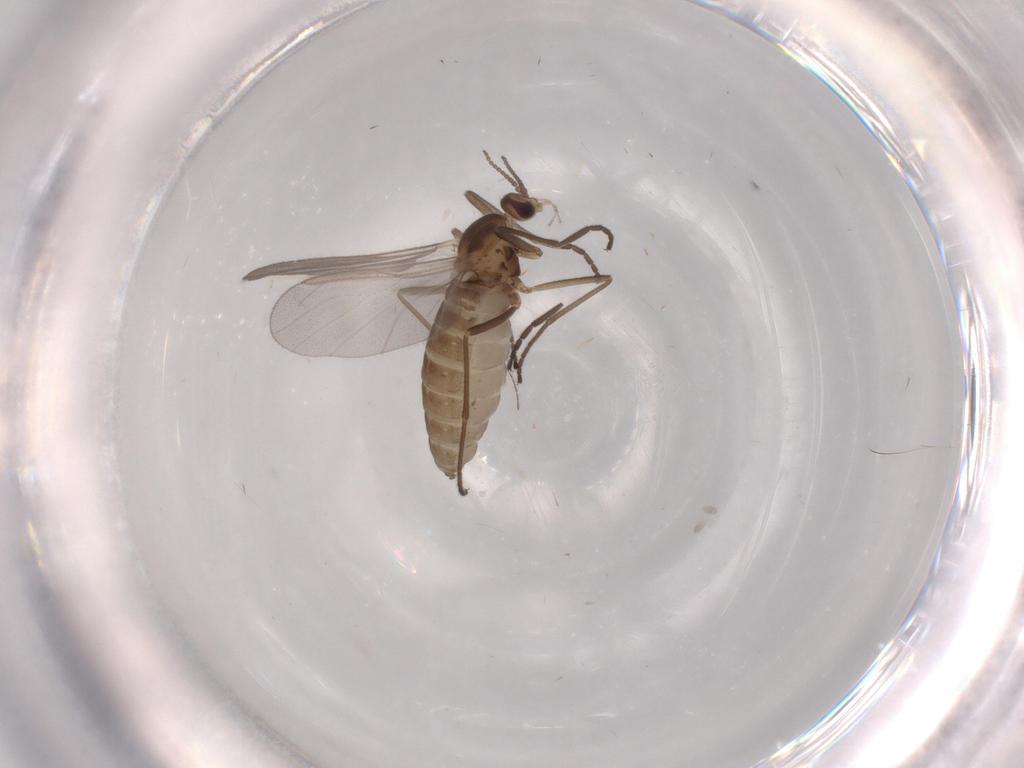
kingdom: Animalia
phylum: Arthropoda
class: Insecta
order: Diptera
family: Cecidomyiidae
